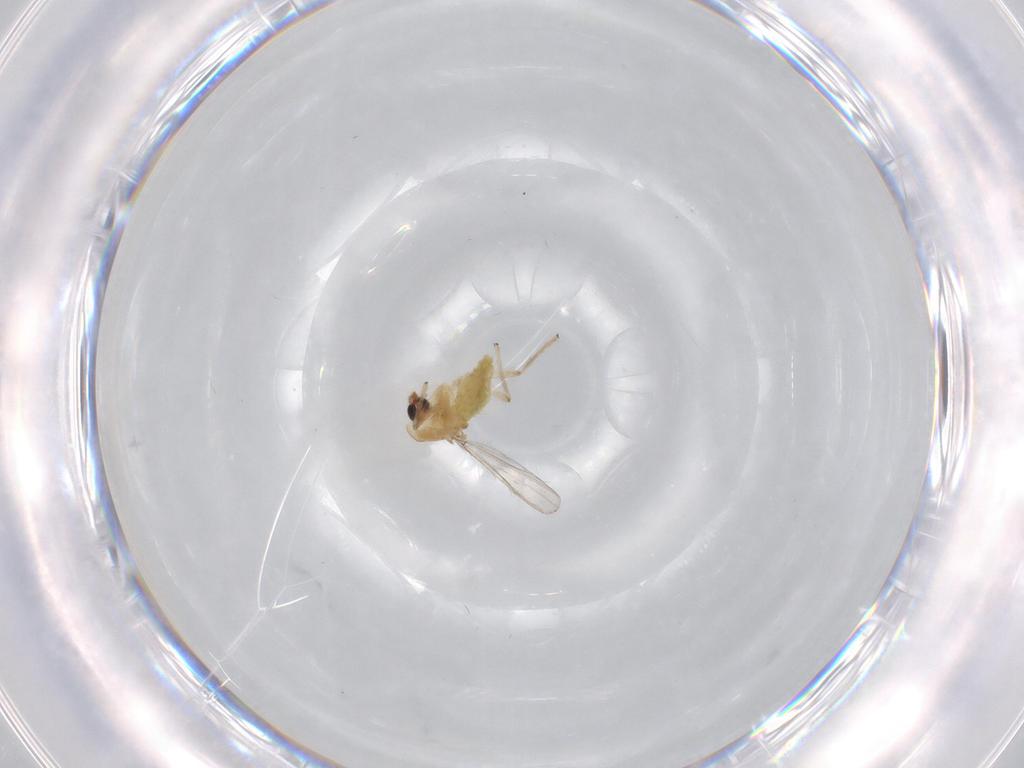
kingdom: Animalia
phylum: Arthropoda
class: Insecta
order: Diptera
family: Chironomidae
